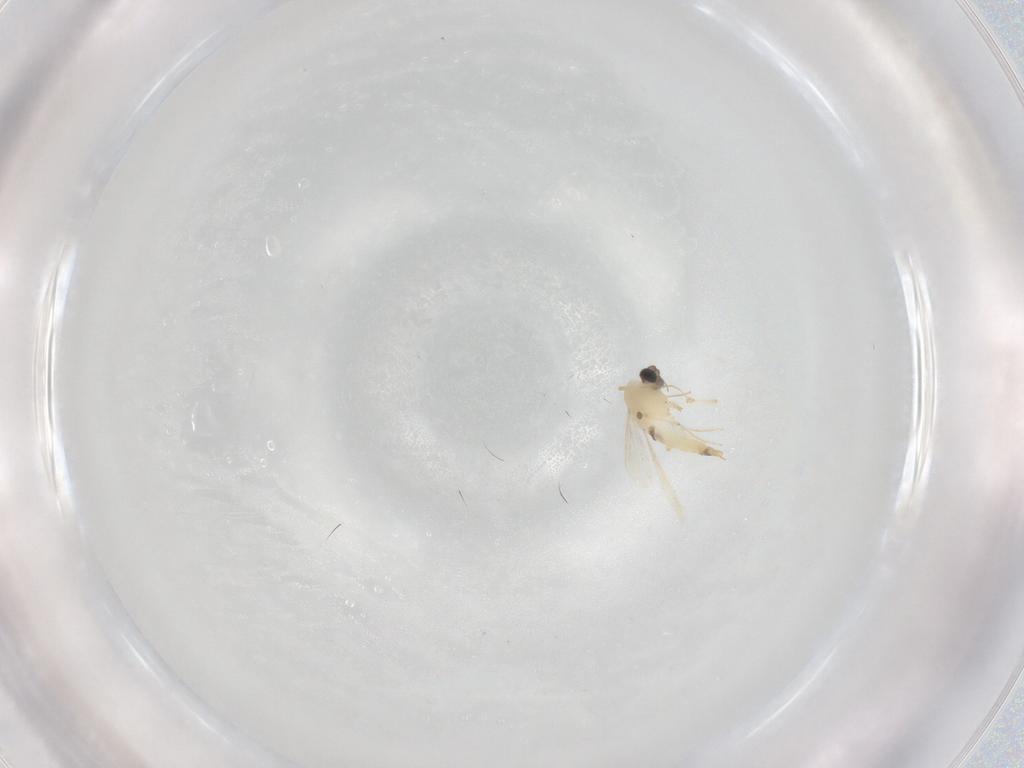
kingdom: Animalia
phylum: Arthropoda
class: Insecta
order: Diptera
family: Cecidomyiidae
